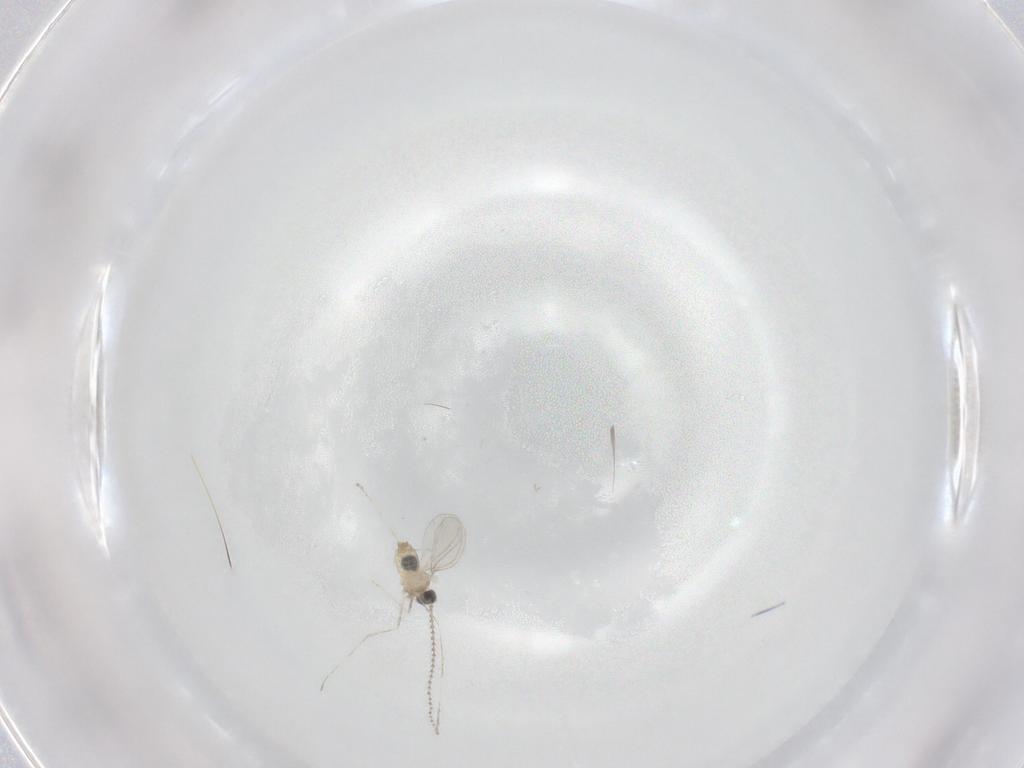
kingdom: Animalia
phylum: Arthropoda
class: Insecta
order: Diptera
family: Cecidomyiidae
